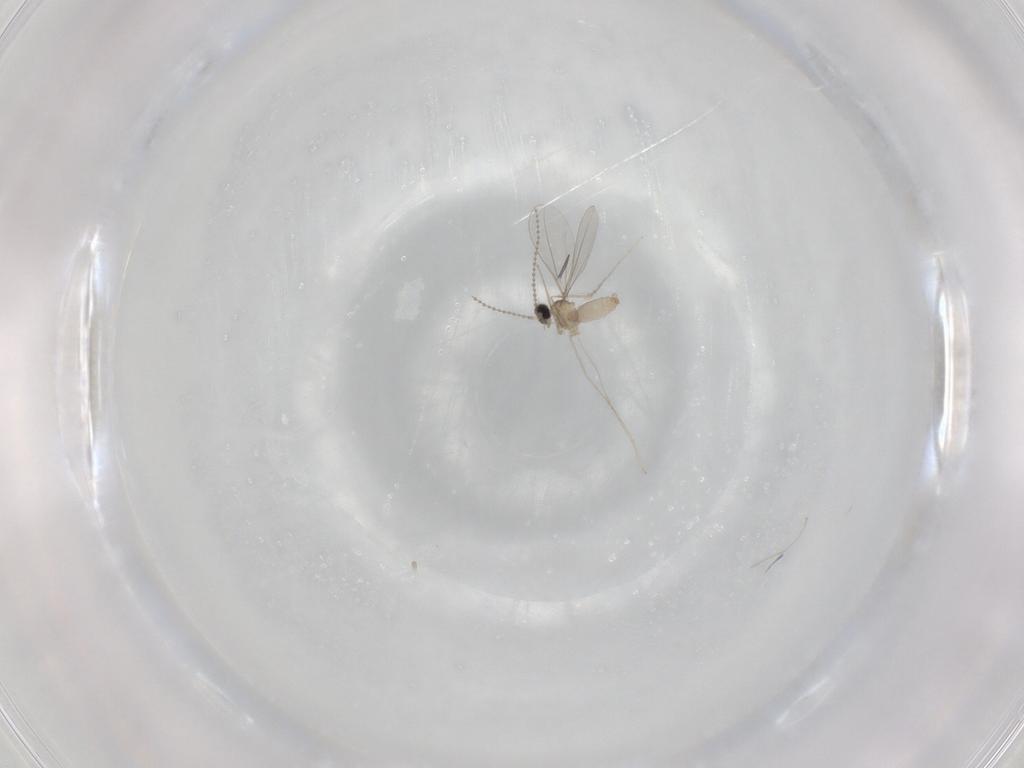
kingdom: Animalia
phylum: Arthropoda
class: Insecta
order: Diptera
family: Cecidomyiidae
